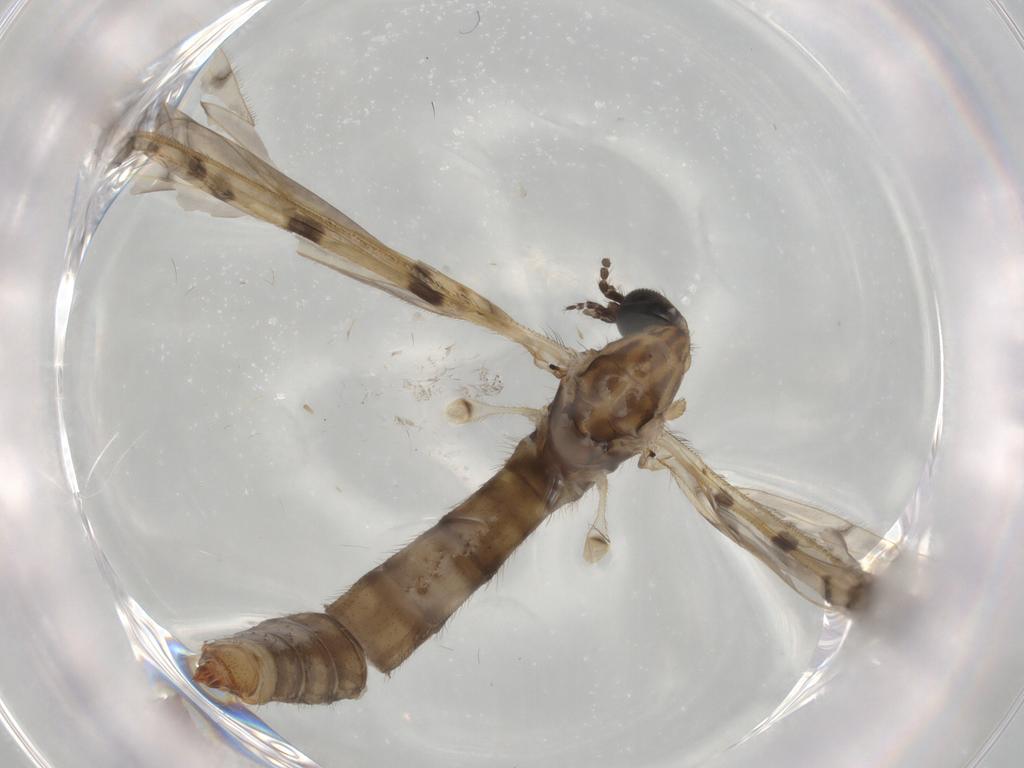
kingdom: Animalia
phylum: Arthropoda
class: Insecta
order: Diptera
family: Limoniidae
